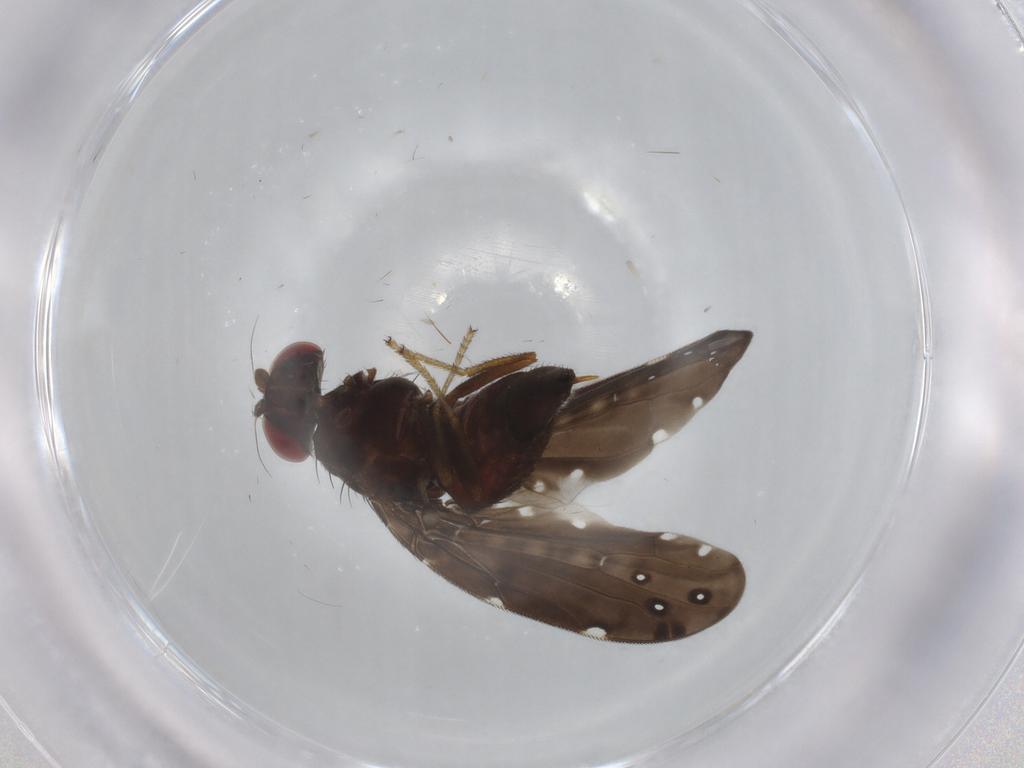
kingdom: Animalia
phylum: Arthropoda
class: Insecta
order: Diptera
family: Ulidiidae
